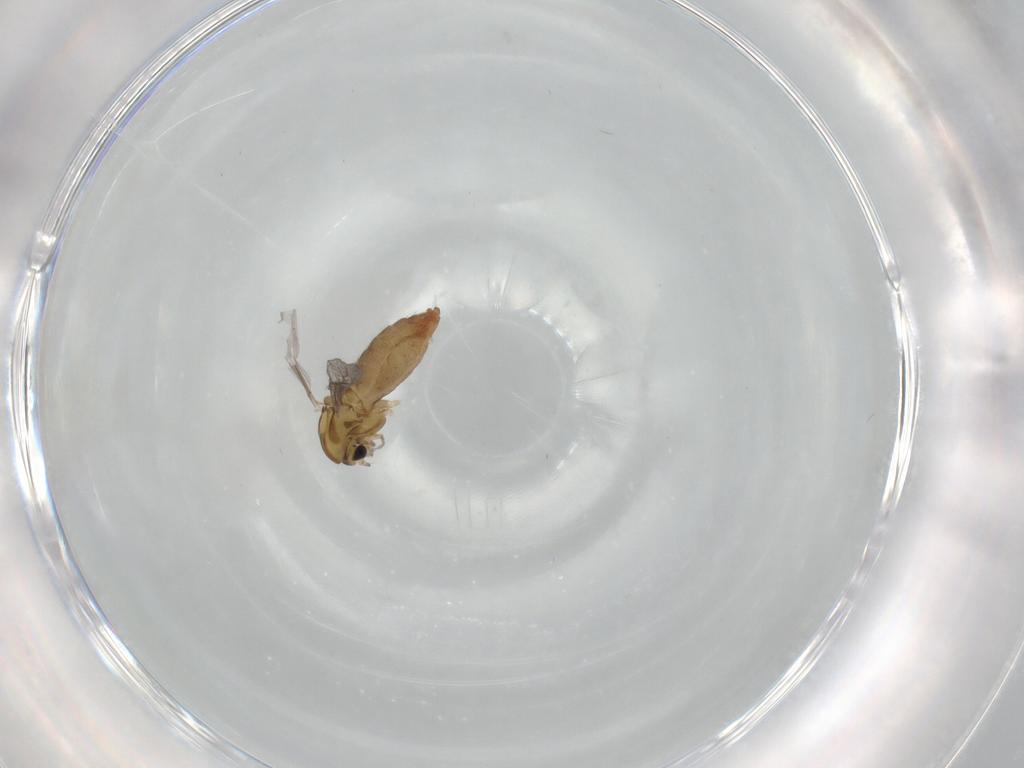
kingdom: Animalia
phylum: Arthropoda
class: Insecta
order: Diptera
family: Chironomidae
